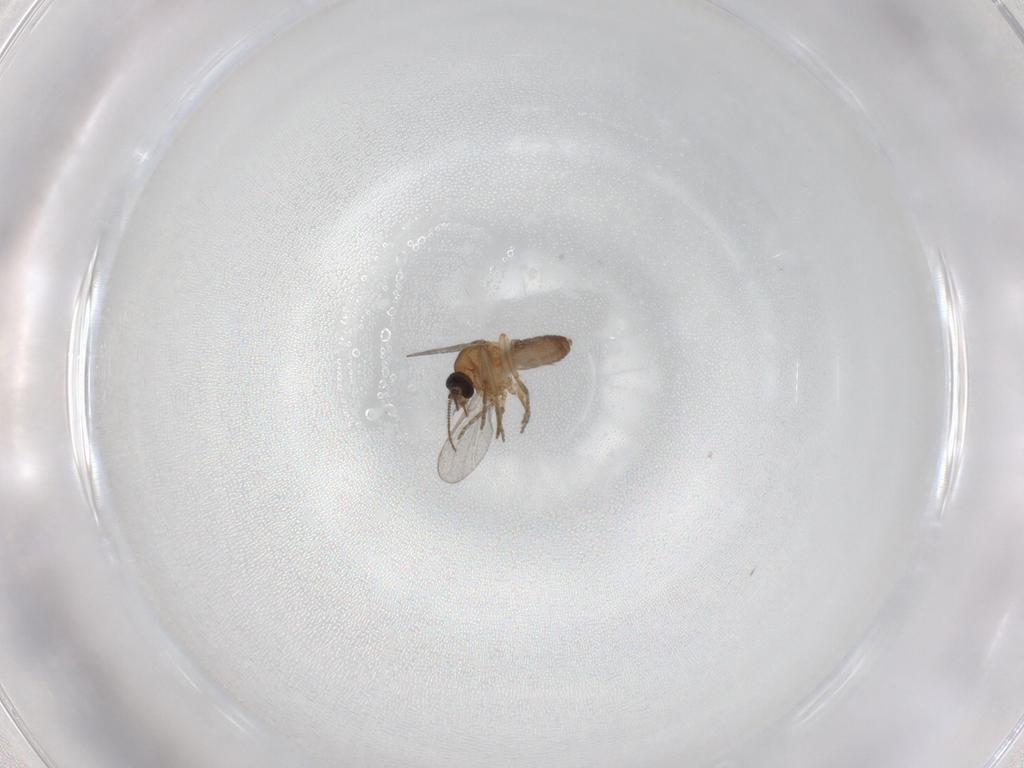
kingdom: Animalia
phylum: Arthropoda
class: Insecta
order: Diptera
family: Ceratopogonidae
